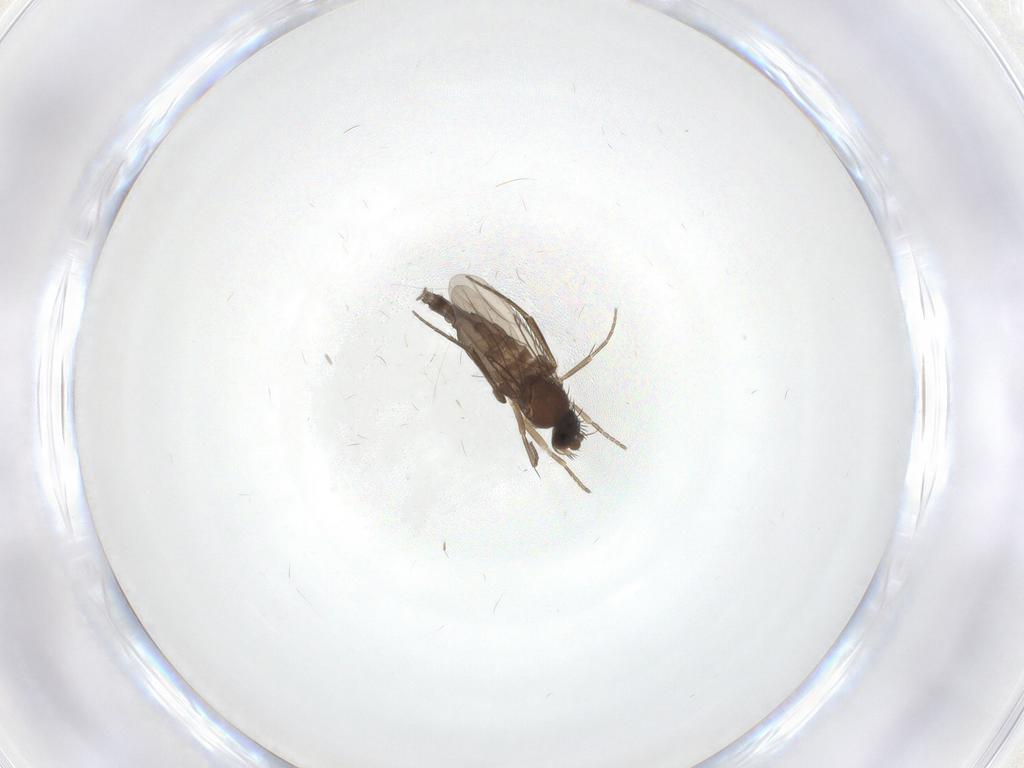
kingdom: Animalia
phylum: Arthropoda
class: Insecta
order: Diptera
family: Phoridae
